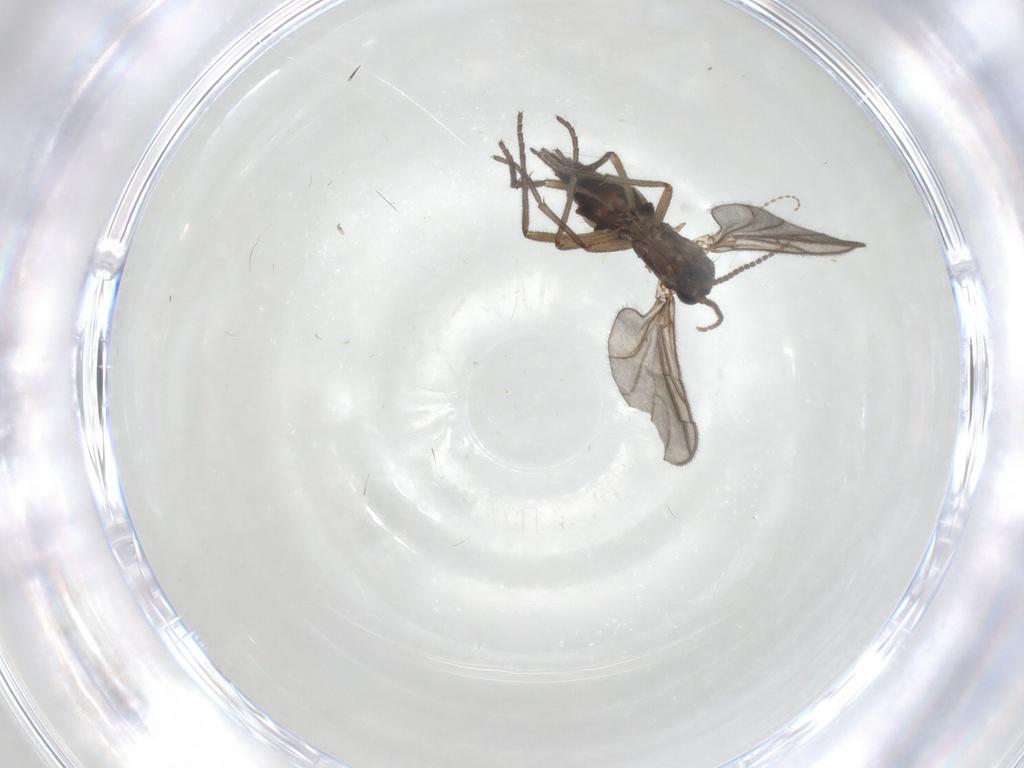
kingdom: Animalia
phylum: Arthropoda
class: Insecta
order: Diptera
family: Sciaridae
